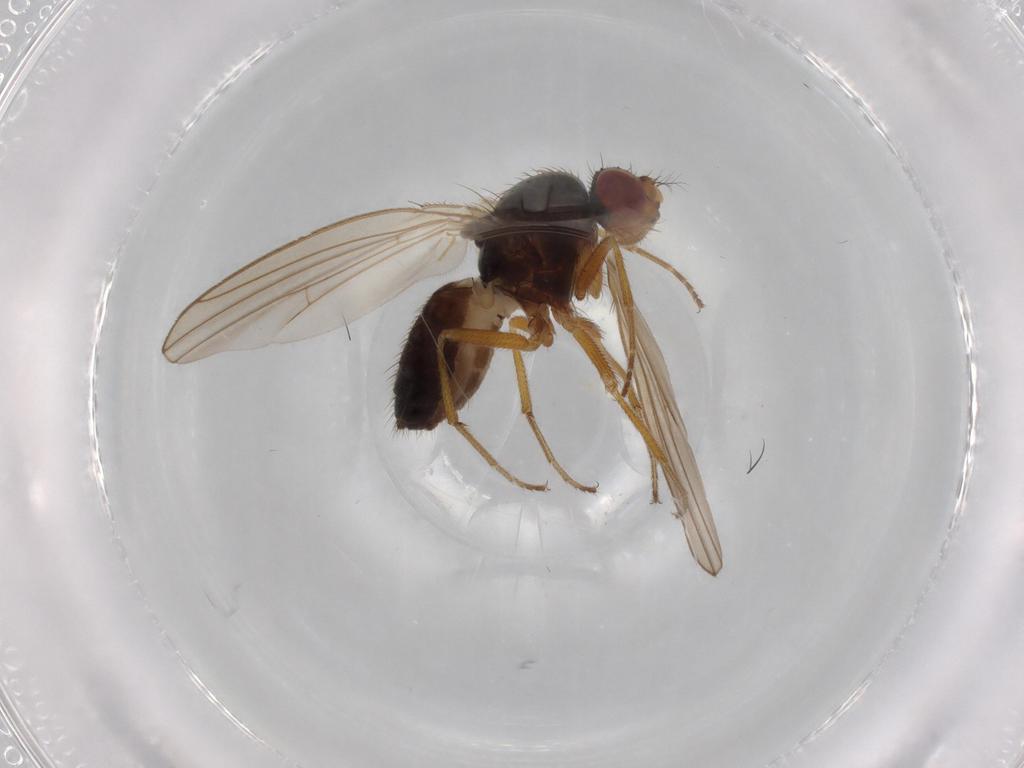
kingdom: Animalia
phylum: Arthropoda
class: Insecta
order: Diptera
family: Drosophilidae
